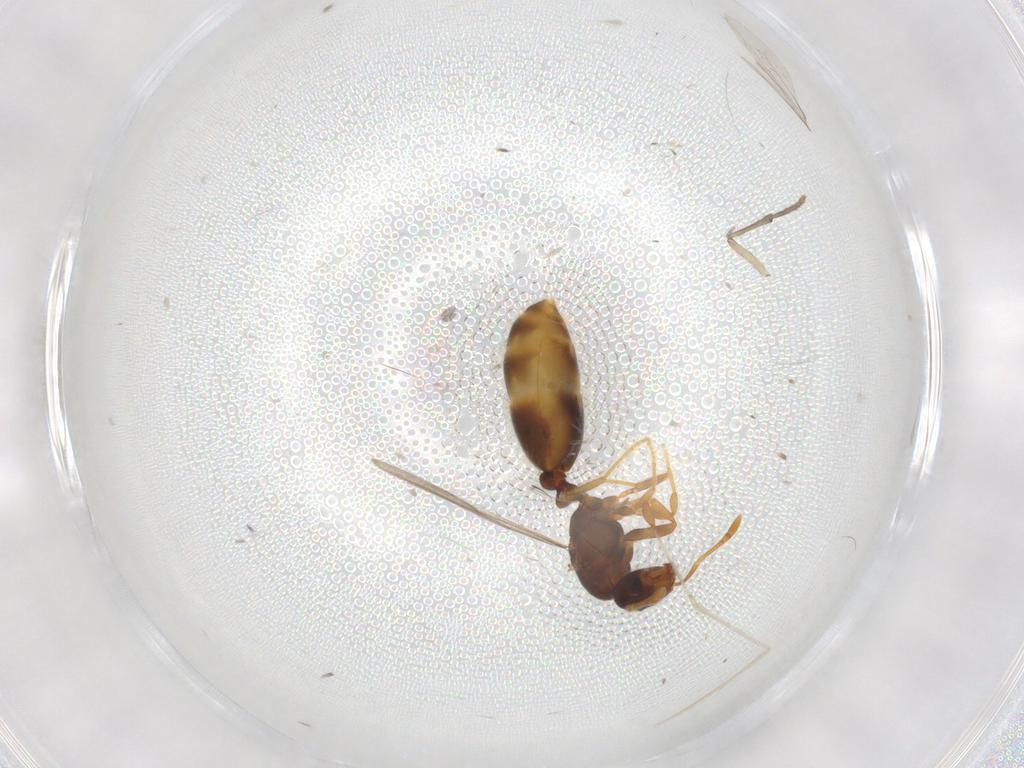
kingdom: Animalia
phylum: Arthropoda
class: Insecta
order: Hymenoptera
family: Formicidae
